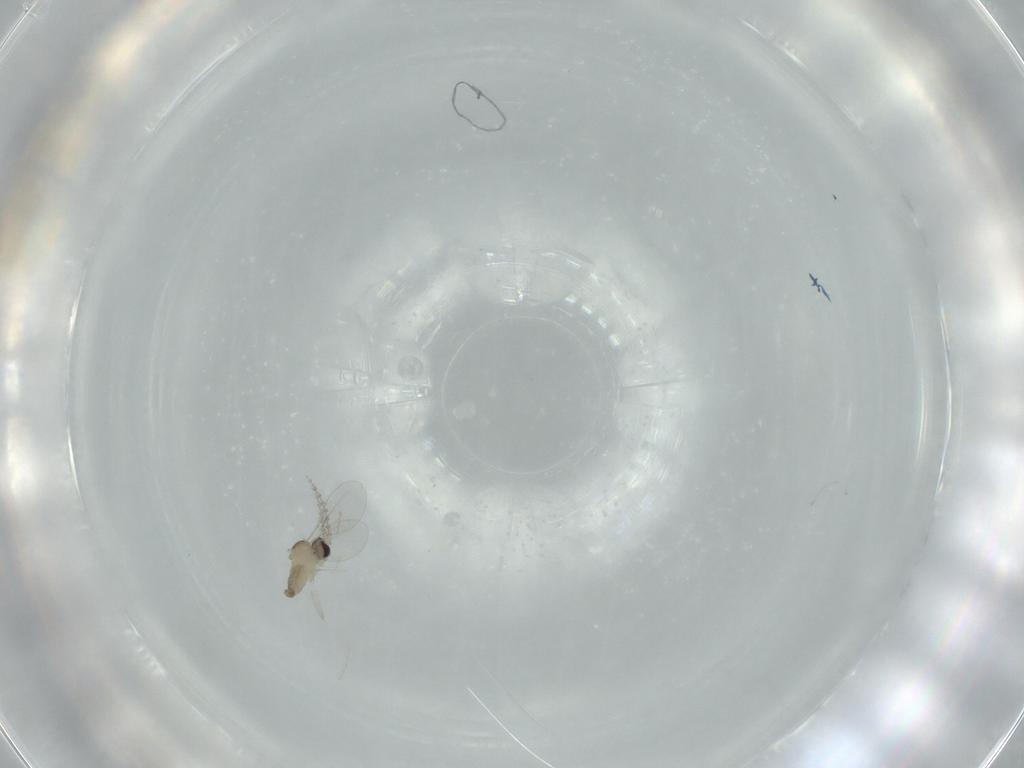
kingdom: Animalia
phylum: Arthropoda
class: Insecta
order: Diptera
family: Cecidomyiidae
